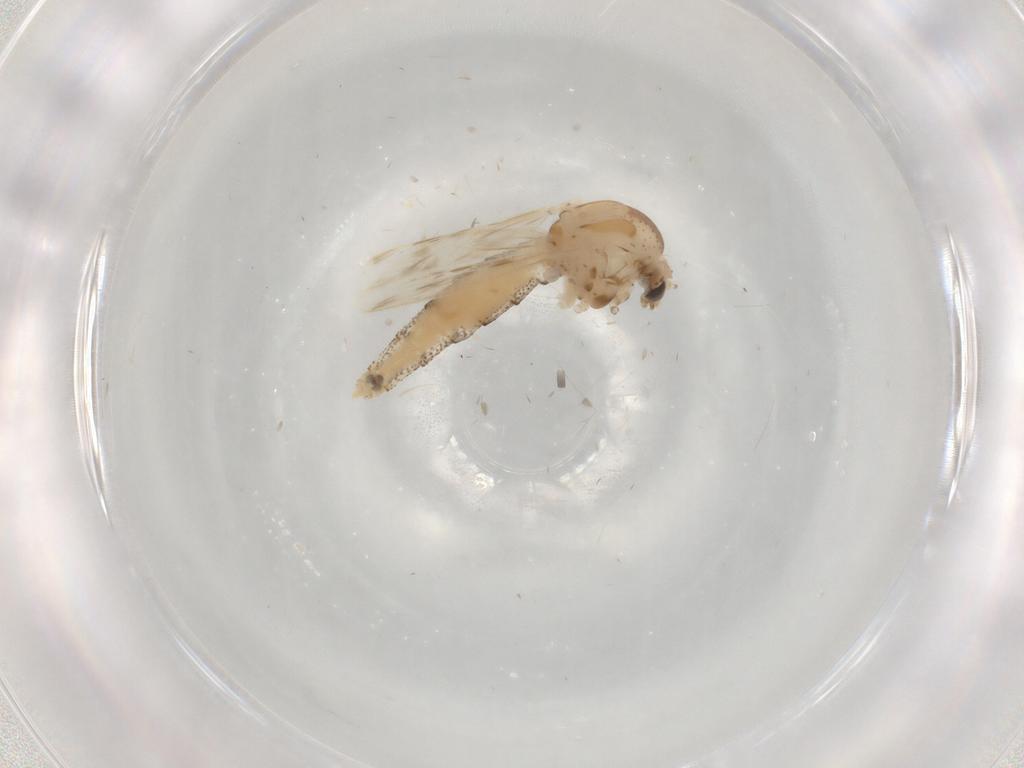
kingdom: Animalia
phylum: Arthropoda
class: Insecta
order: Diptera
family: Chaoboridae
